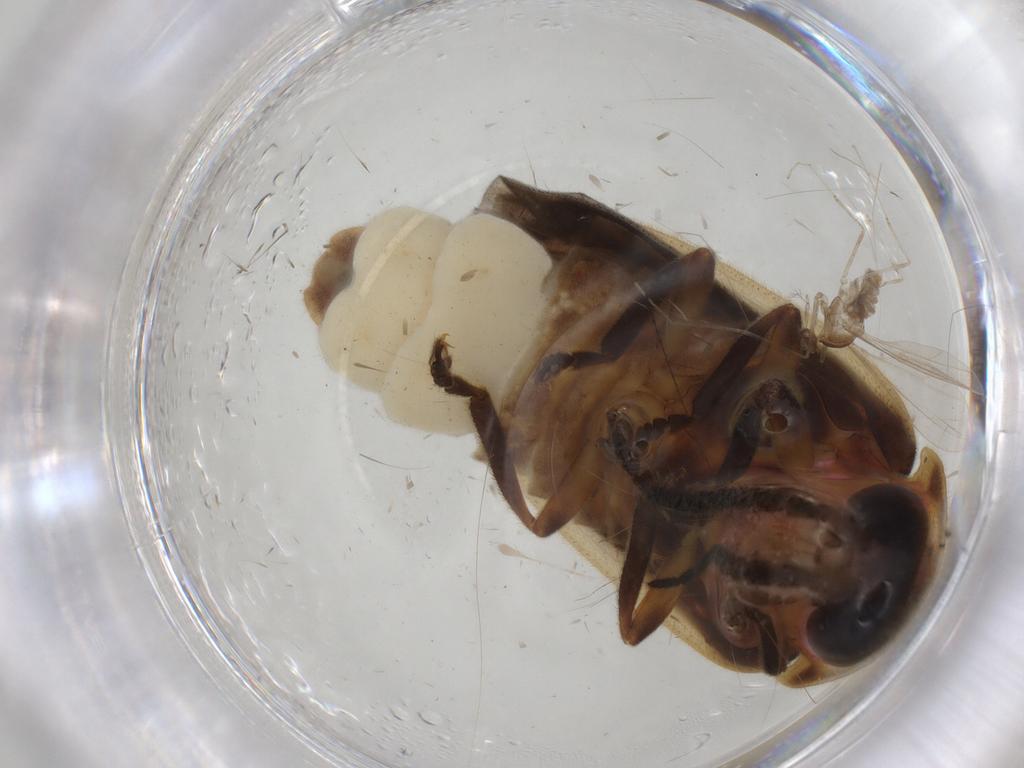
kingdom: Animalia
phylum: Arthropoda
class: Insecta
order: Diptera
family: Phoridae
